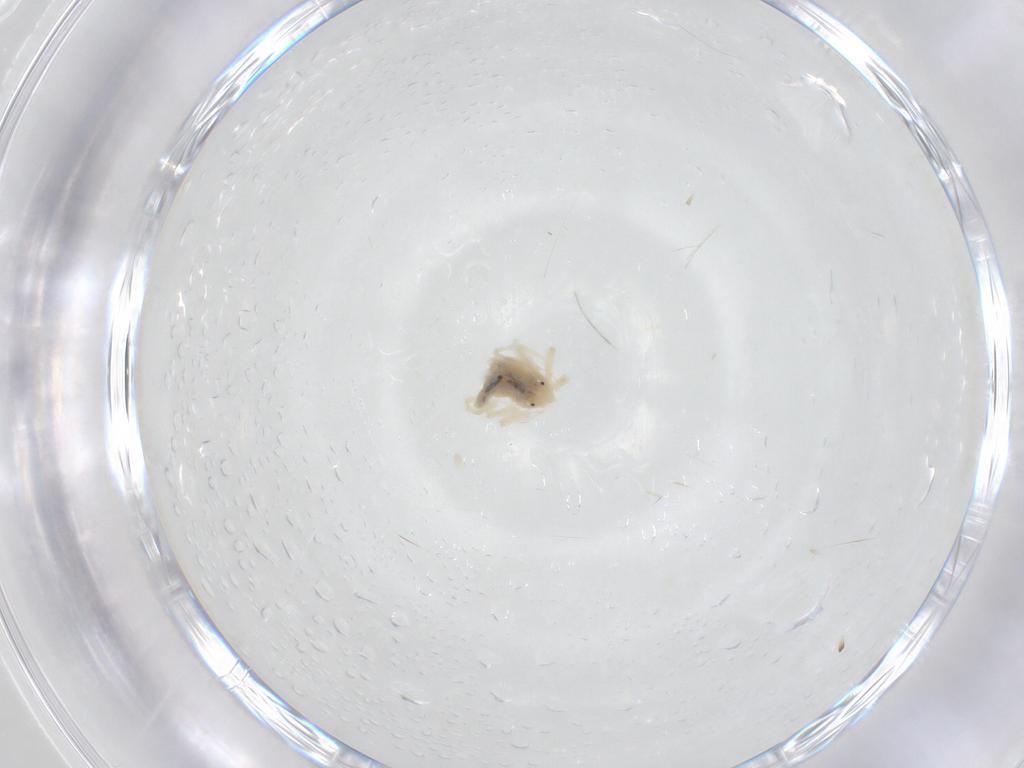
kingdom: Animalia
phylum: Arthropoda
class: Arachnida
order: Trombidiformes
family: Anystidae
